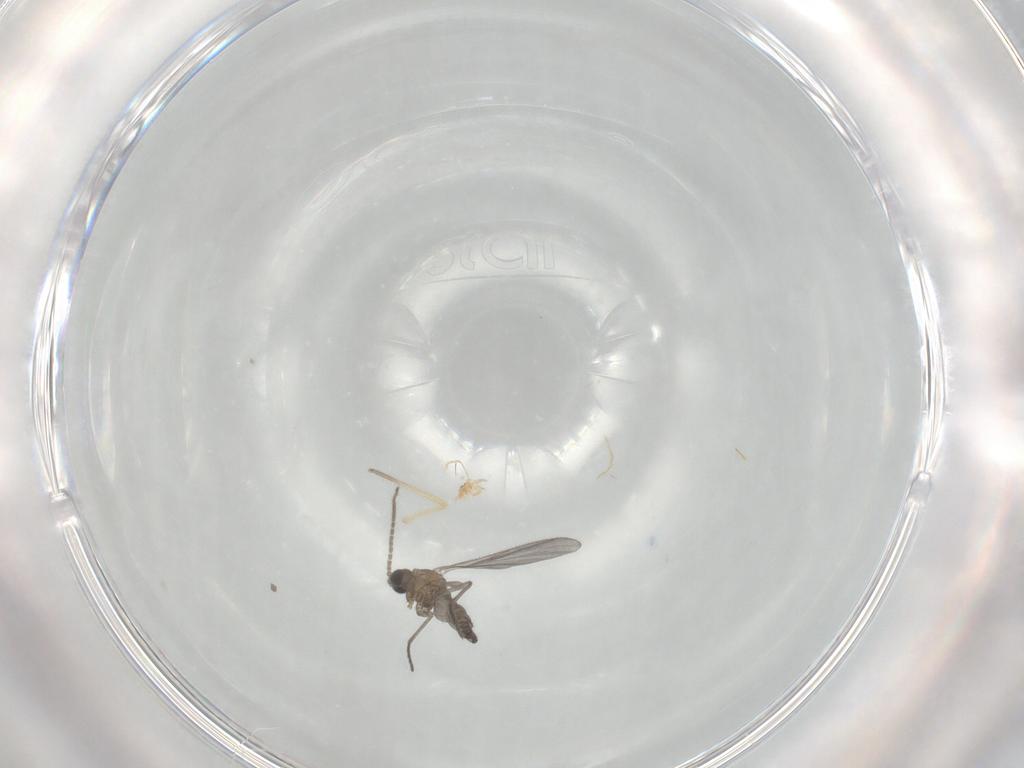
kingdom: Animalia
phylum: Arthropoda
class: Insecta
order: Diptera
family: Chironomidae
